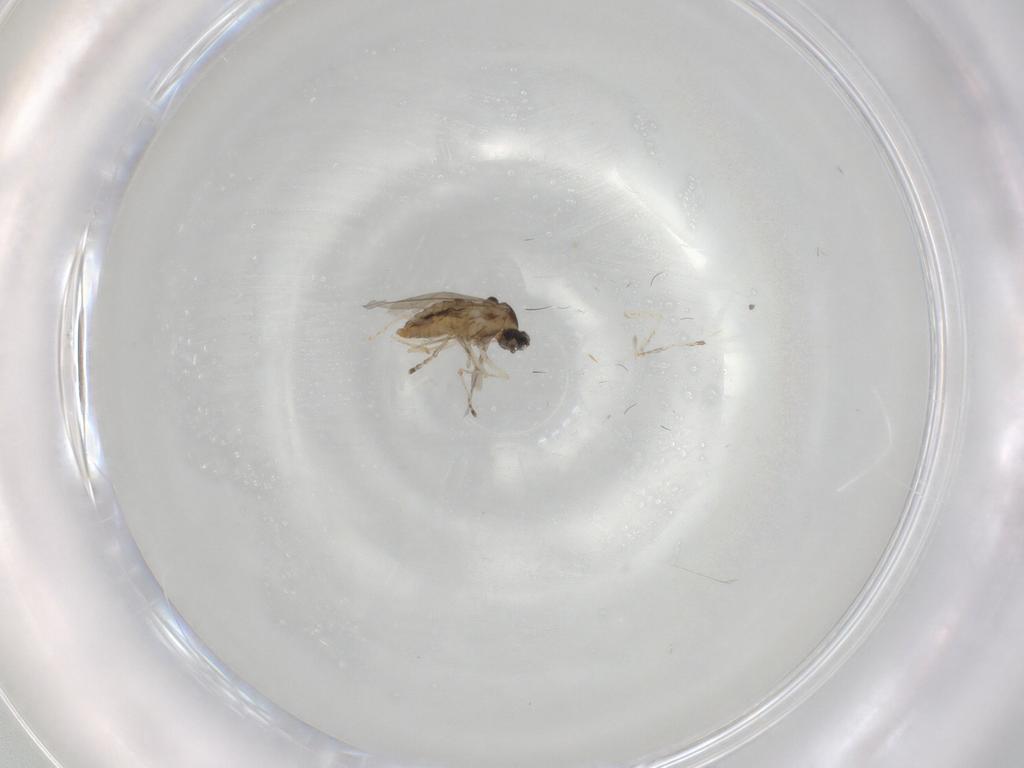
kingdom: Animalia
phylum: Arthropoda
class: Insecta
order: Diptera
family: Cecidomyiidae
